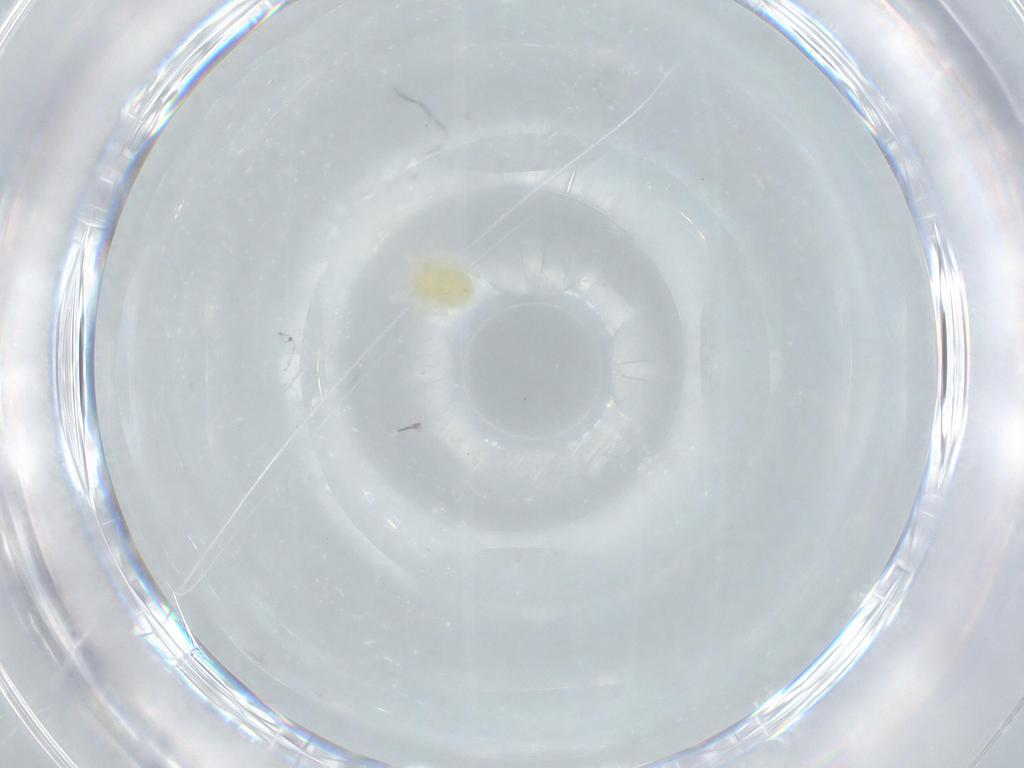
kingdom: Animalia
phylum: Arthropoda
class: Arachnida
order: Trombidiformes
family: Anystidae
